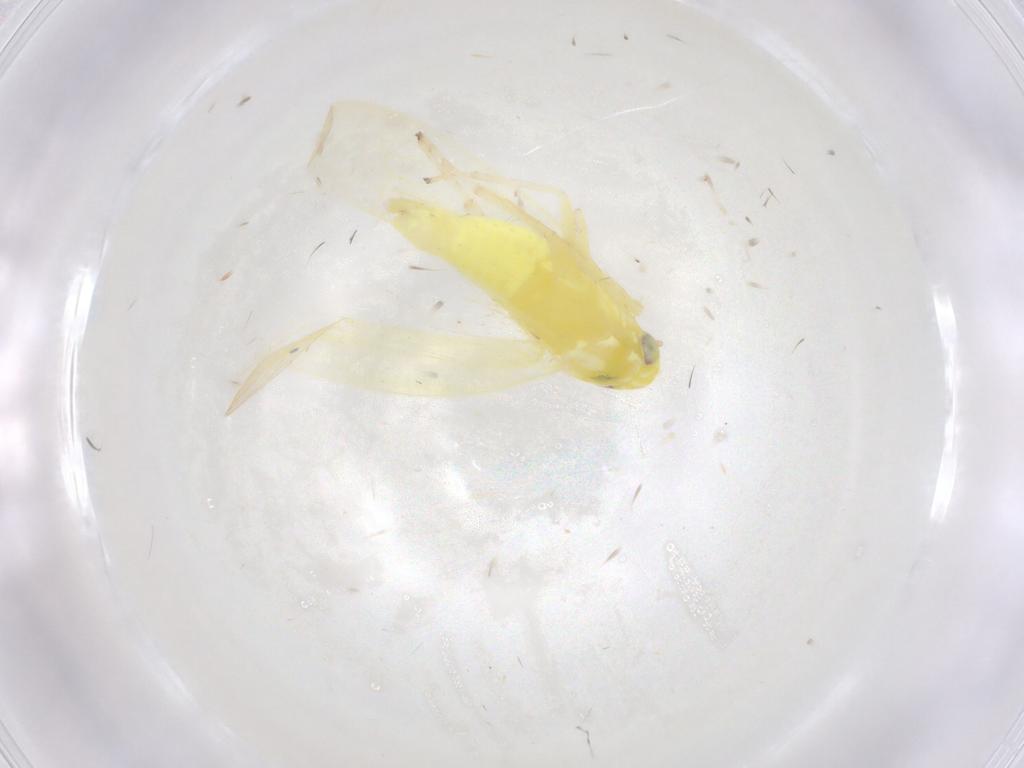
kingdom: Animalia
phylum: Arthropoda
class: Insecta
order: Hemiptera
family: Cicadellidae
